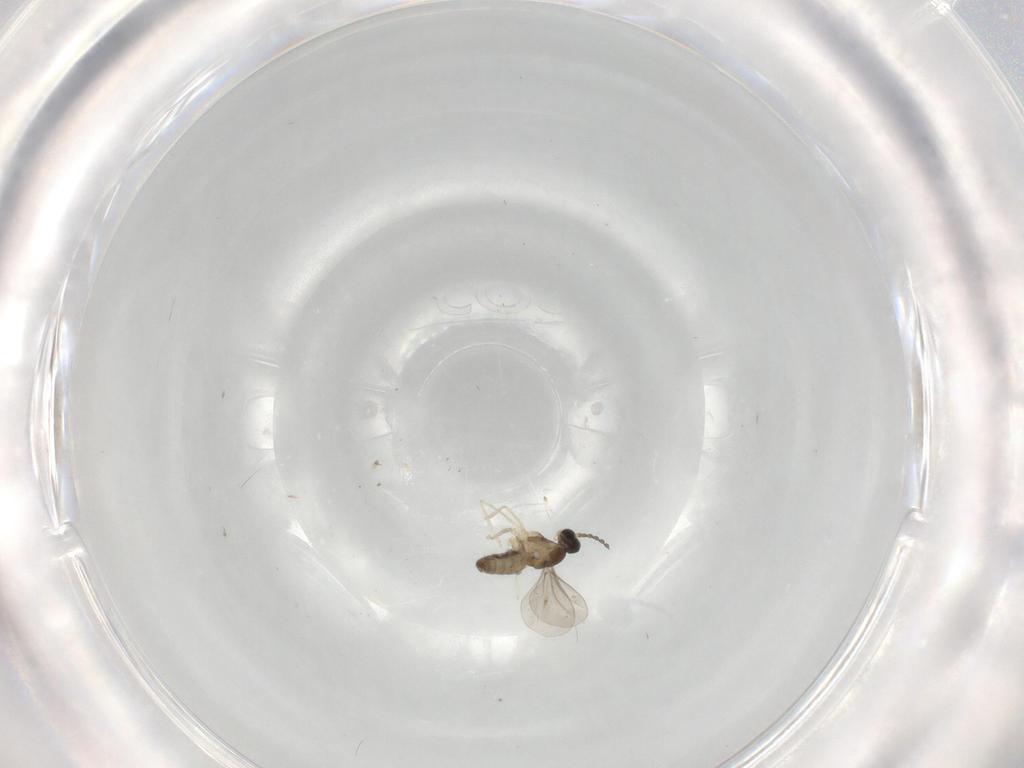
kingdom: Animalia
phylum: Arthropoda
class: Insecta
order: Diptera
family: Cecidomyiidae
